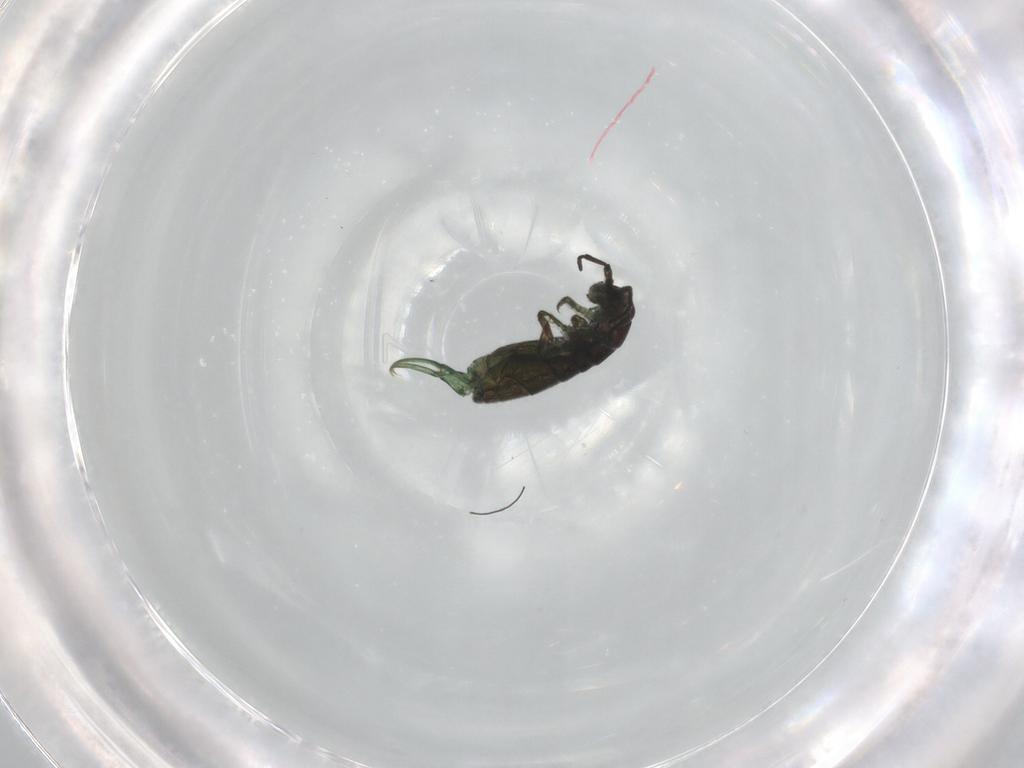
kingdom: Animalia
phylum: Arthropoda
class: Collembola
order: Entomobryomorpha
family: Isotomidae
